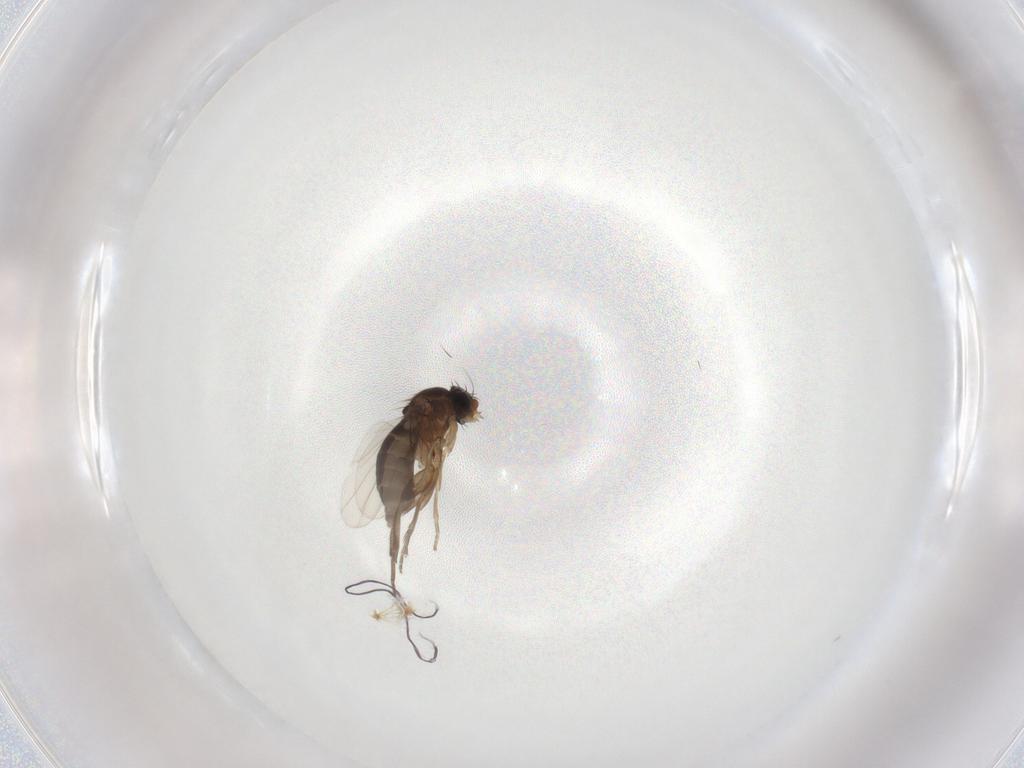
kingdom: Animalia
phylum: Arthropoda
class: Insecta
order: Diptera
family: Phoridae
